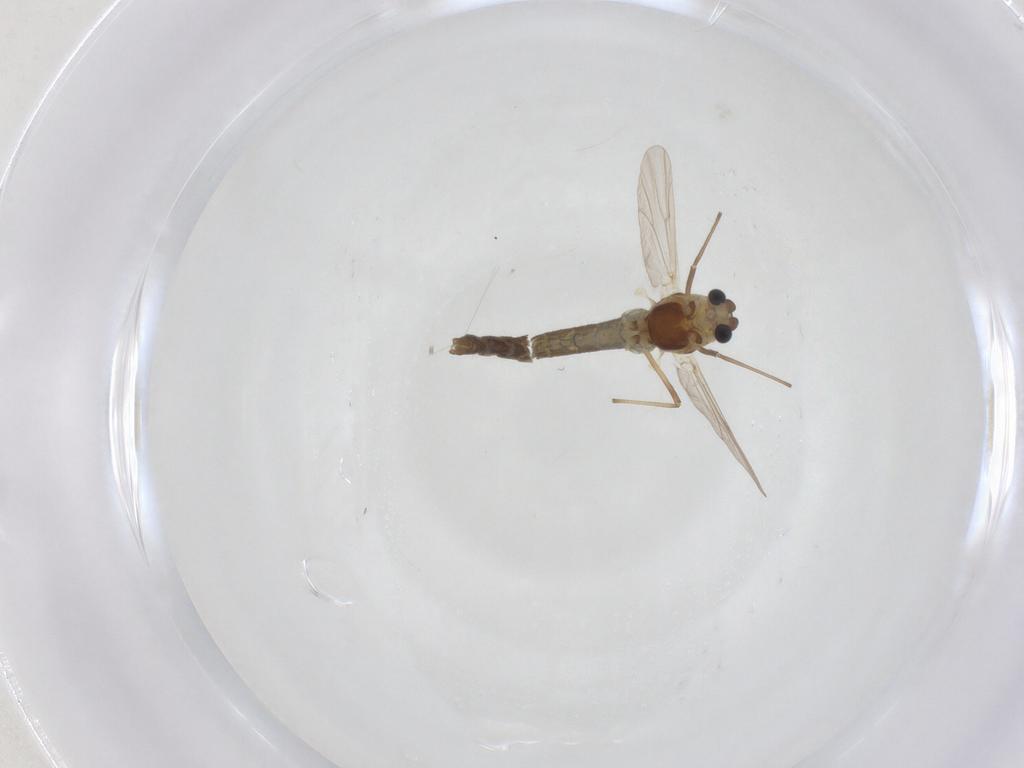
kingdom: Animalia
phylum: Arthropoda
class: Insecta
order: Diptera
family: Chironomidae
